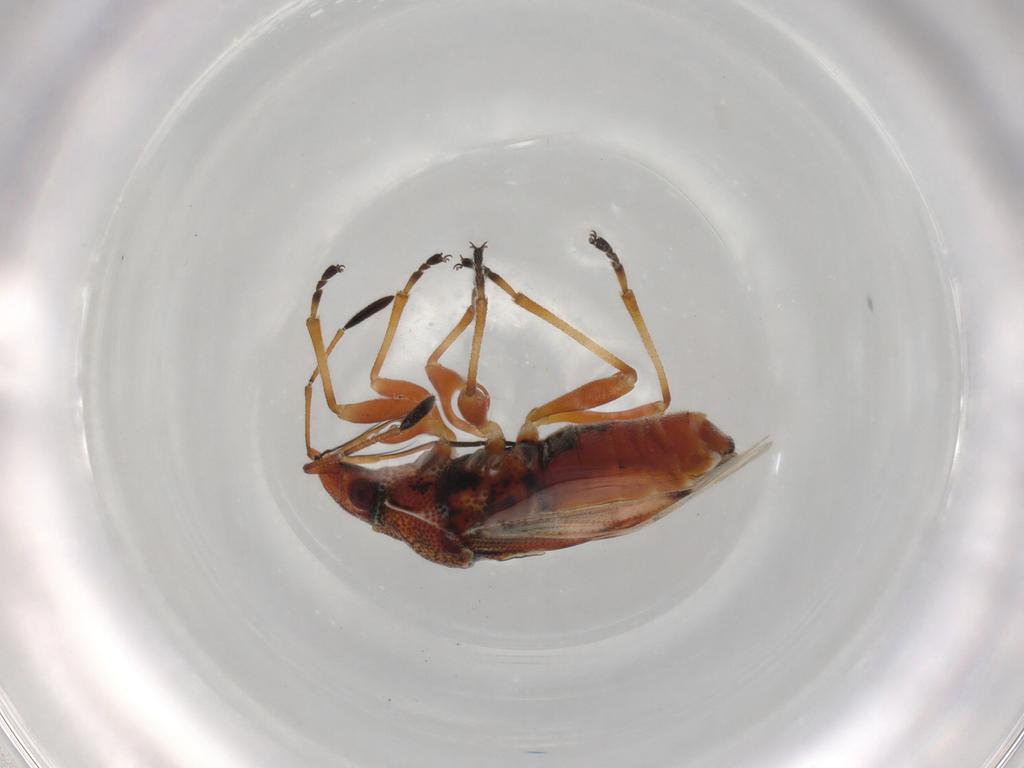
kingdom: Animalia
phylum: Arthropoda
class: Insecta
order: Hemiptera
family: Lygaeidae
